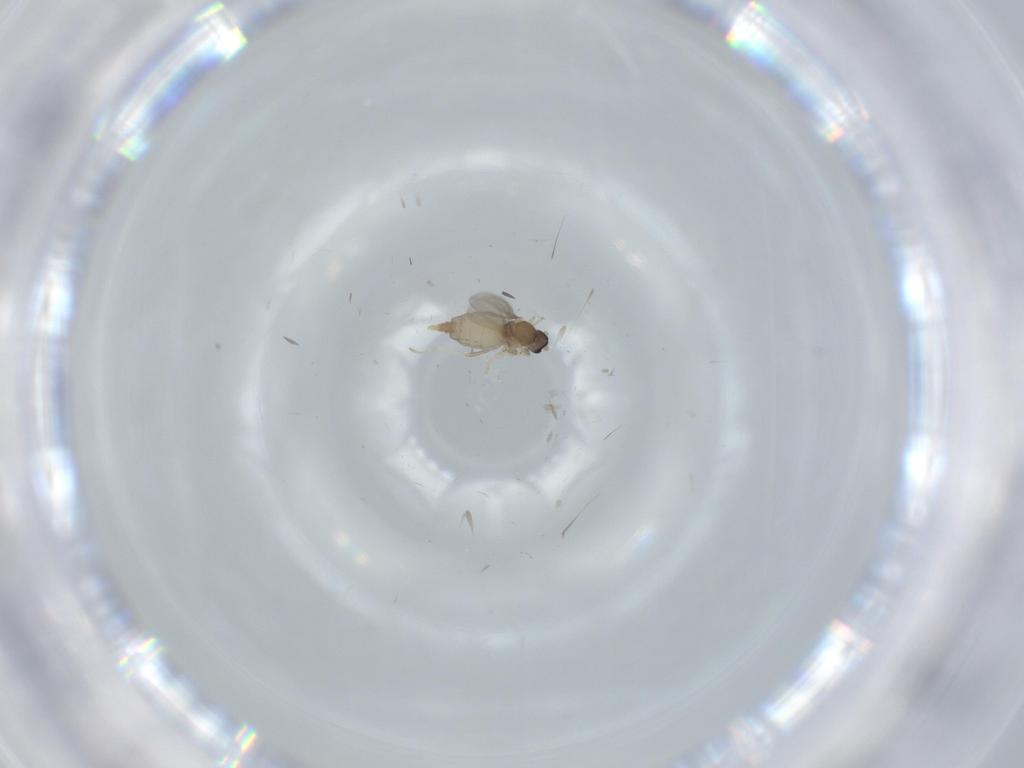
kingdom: Animalia
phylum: Arthropoda
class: Insecta
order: Diptera
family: Cecidomyiidae
